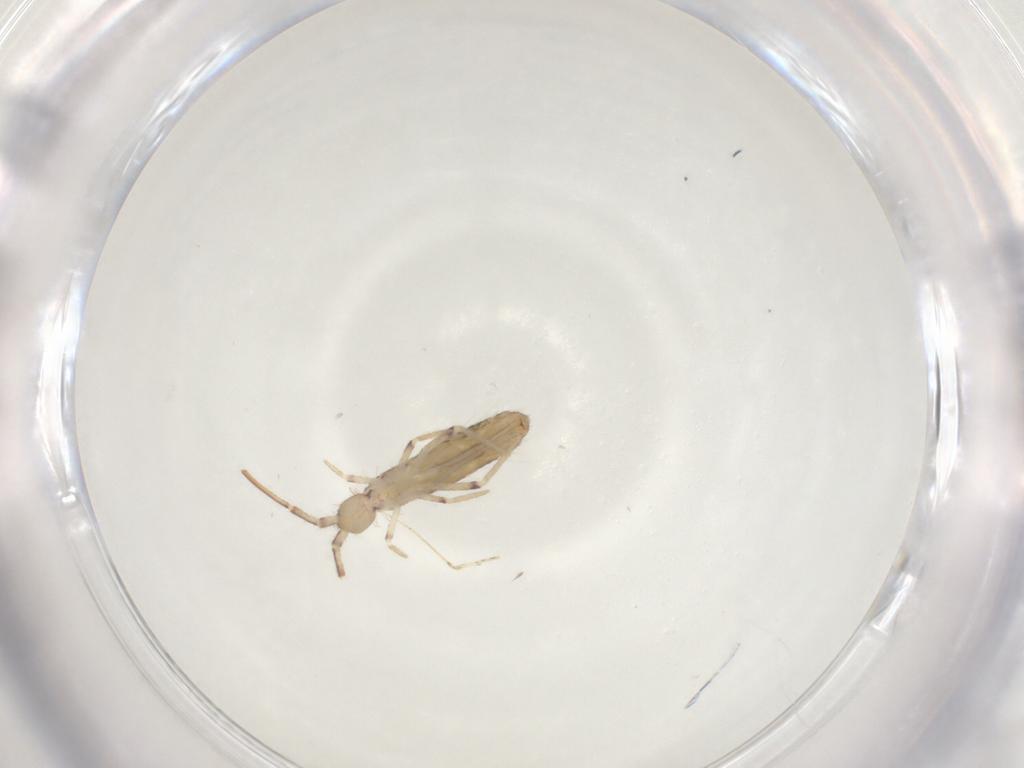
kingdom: Animalia
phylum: Arthropoda
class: Collembola
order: Entomobryomorpha
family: Entomobryidae
